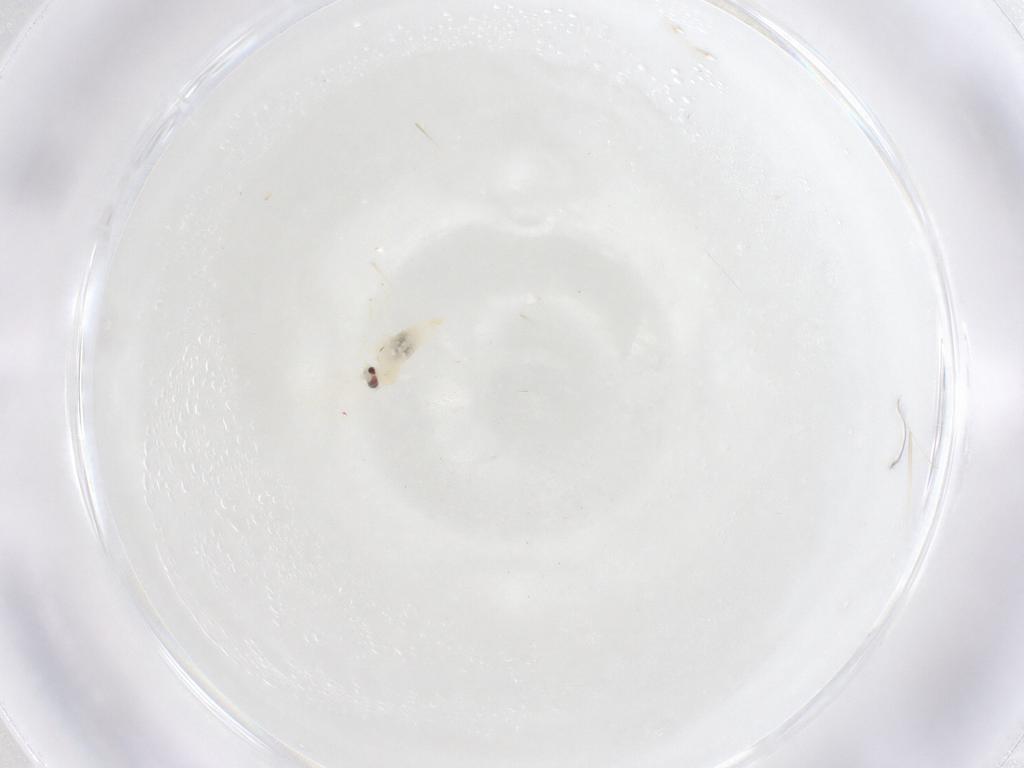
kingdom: Animalia
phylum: Arthropoda
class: Insecta
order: Diptera
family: Cecidomyiidae
